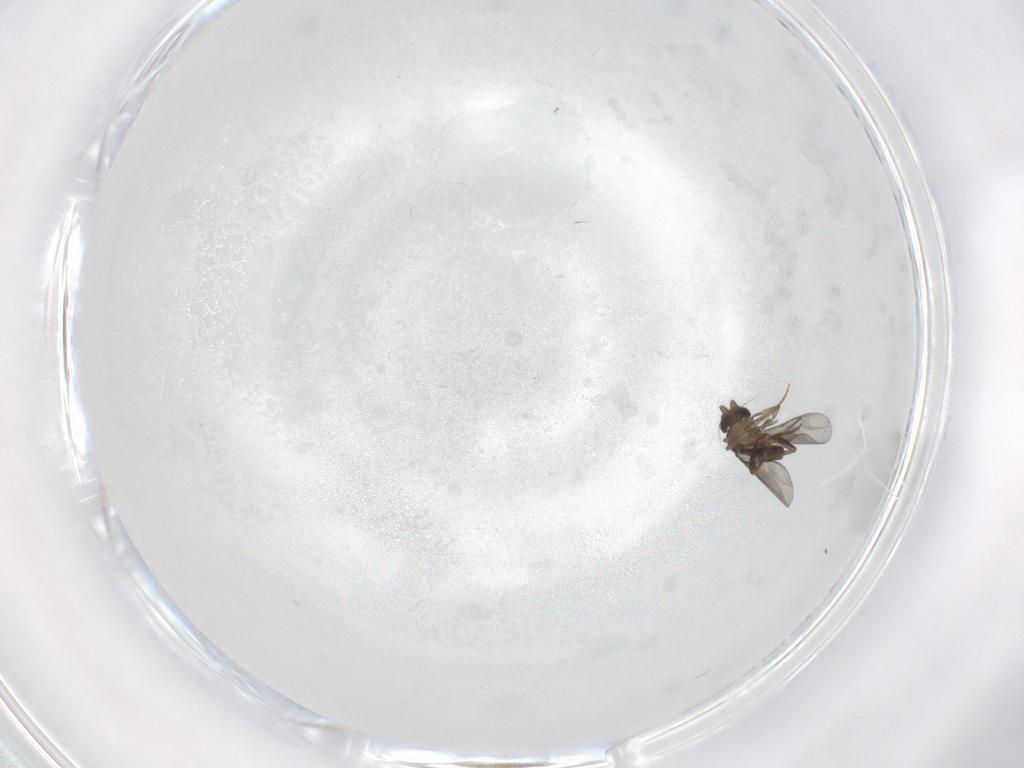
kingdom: Animalia
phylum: Arthropoda
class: Insecta
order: Diptera
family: Cecidomyiidae
